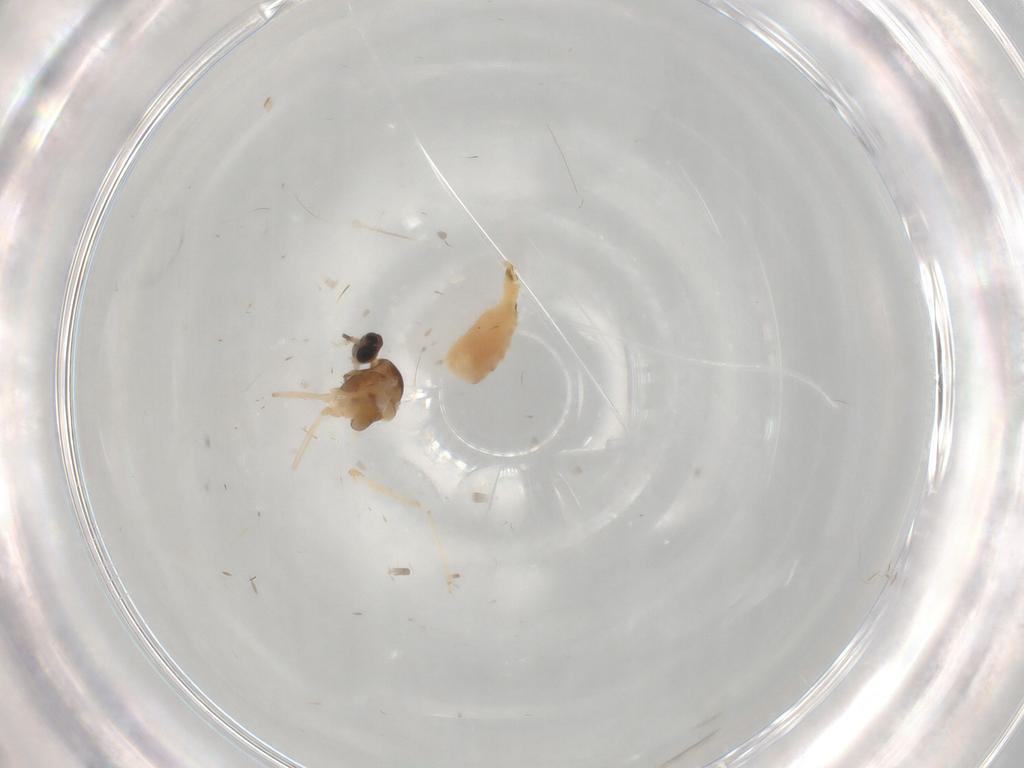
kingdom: Animalia
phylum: Arthropoda
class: Insecta
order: Diptera
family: Cecidomyiidae
